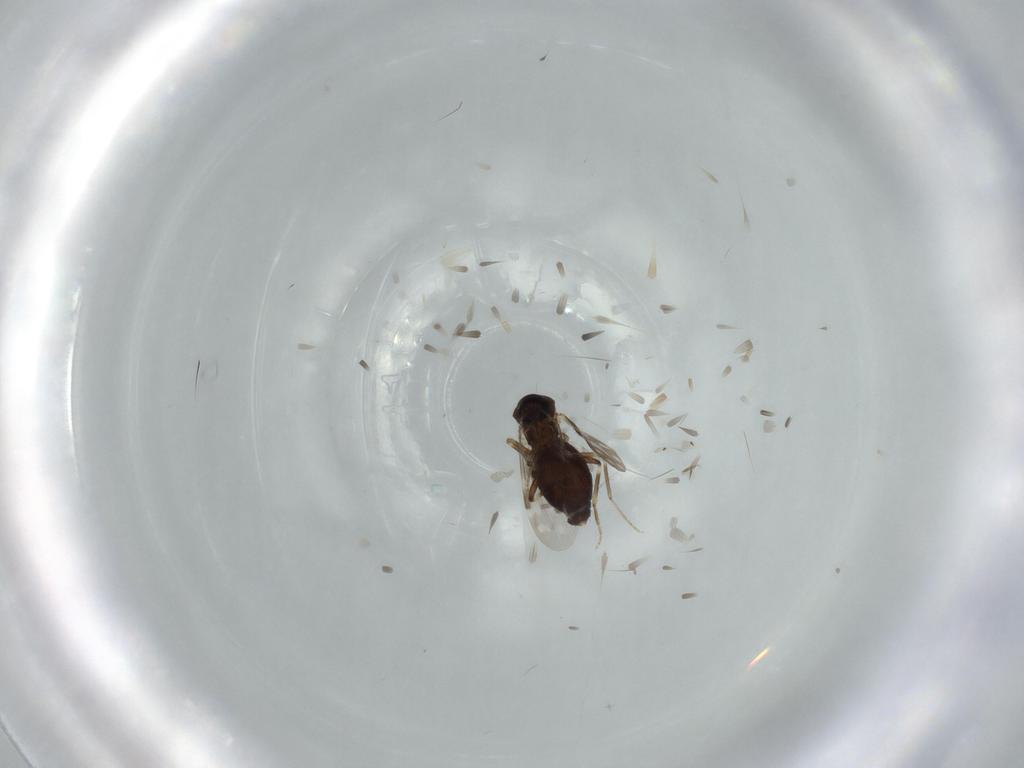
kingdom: Animalia
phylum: Arthropoda
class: Insecta
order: Diptera
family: Ceratopogonidae
